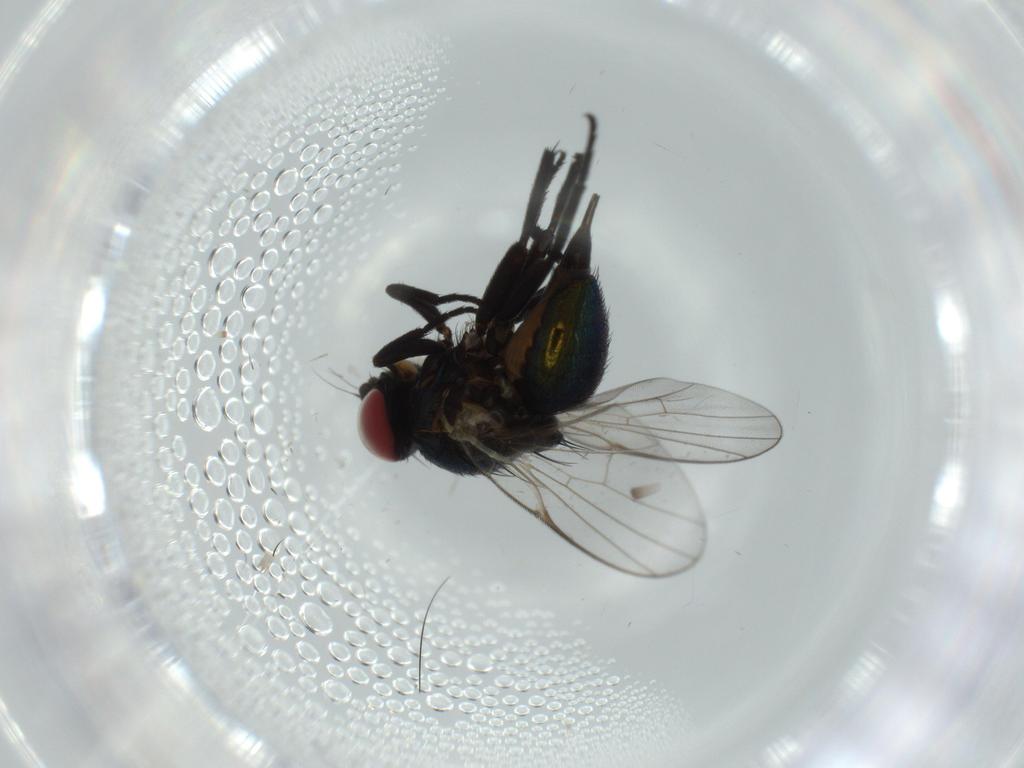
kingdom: Animalia
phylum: Arthropoda
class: Insecta
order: Diptera
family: Agromyzidae
